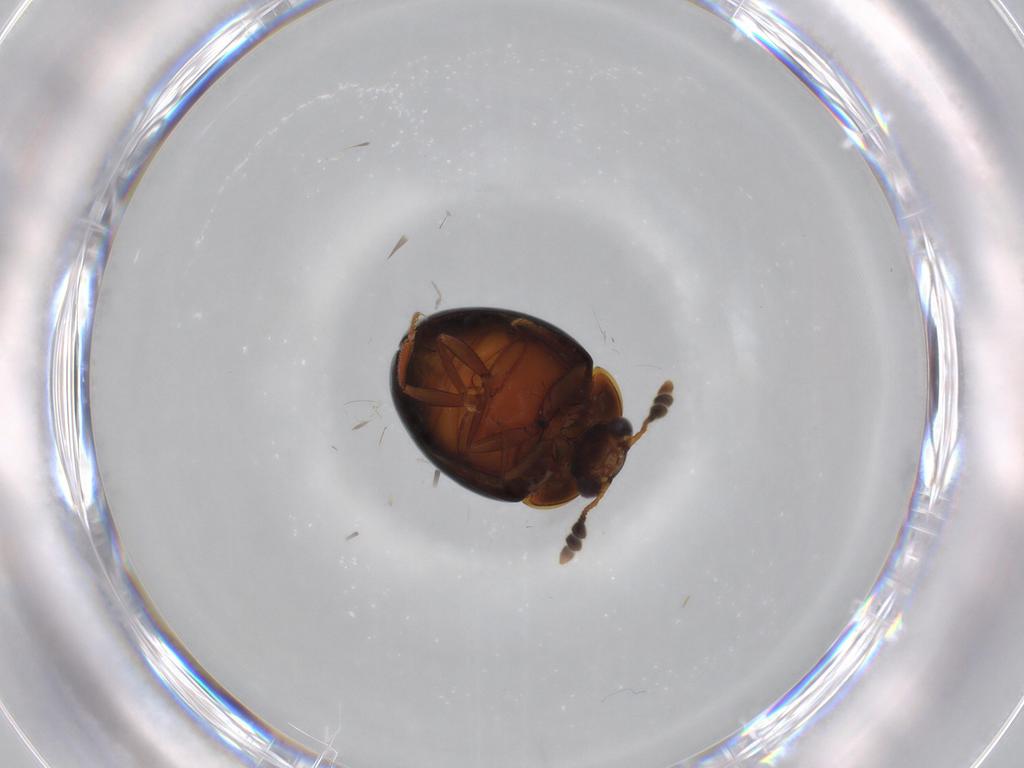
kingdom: Animalia
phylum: Arthropoda
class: Insecta
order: Coleoptera
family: Leiodidae
